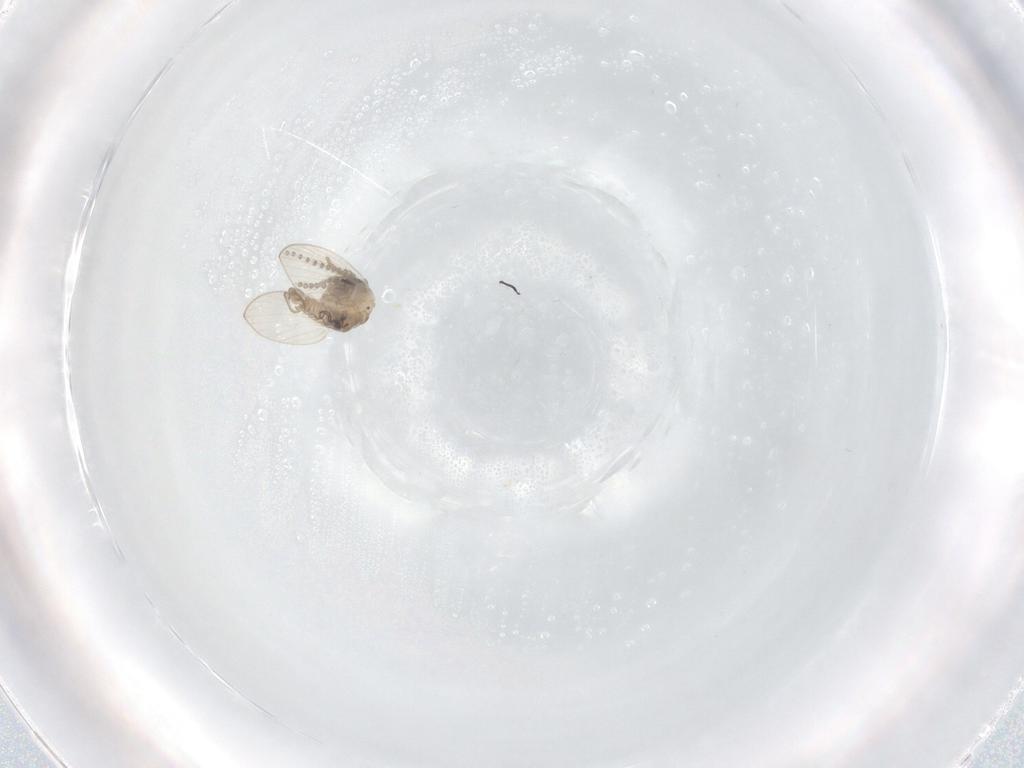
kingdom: Animalia
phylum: Arthropoda
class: Insecta
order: Diptera
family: Psychodidae
